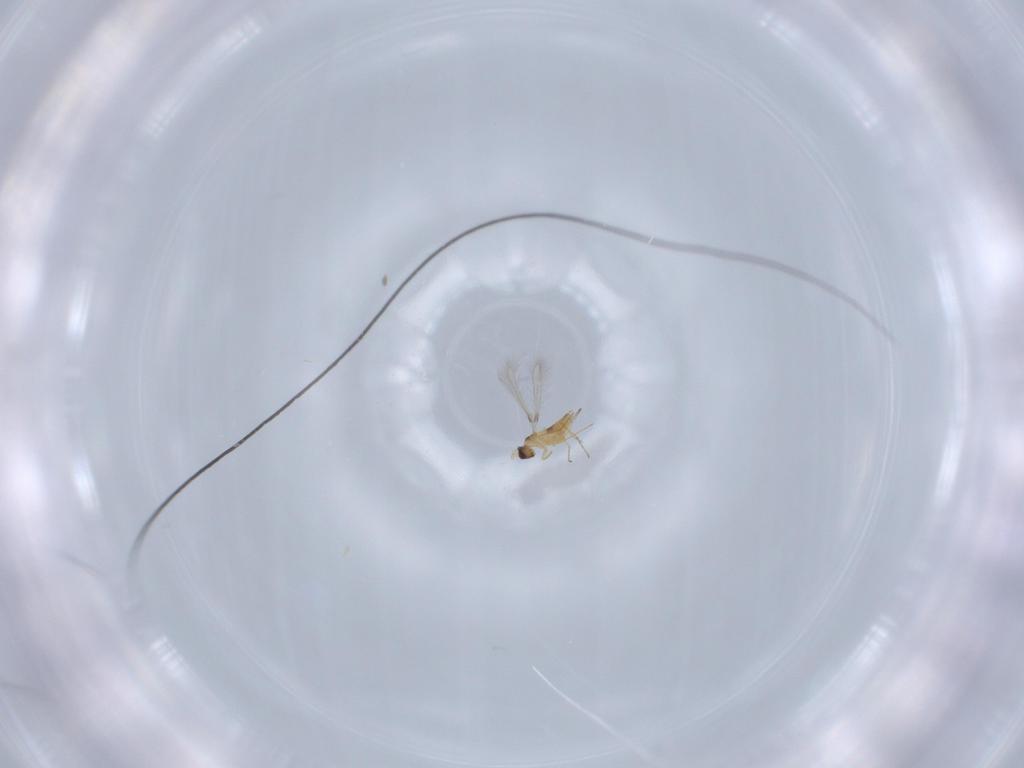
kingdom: Animalia
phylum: Arthropoda
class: Insecta
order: Hymenoptera
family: Mymaridae
